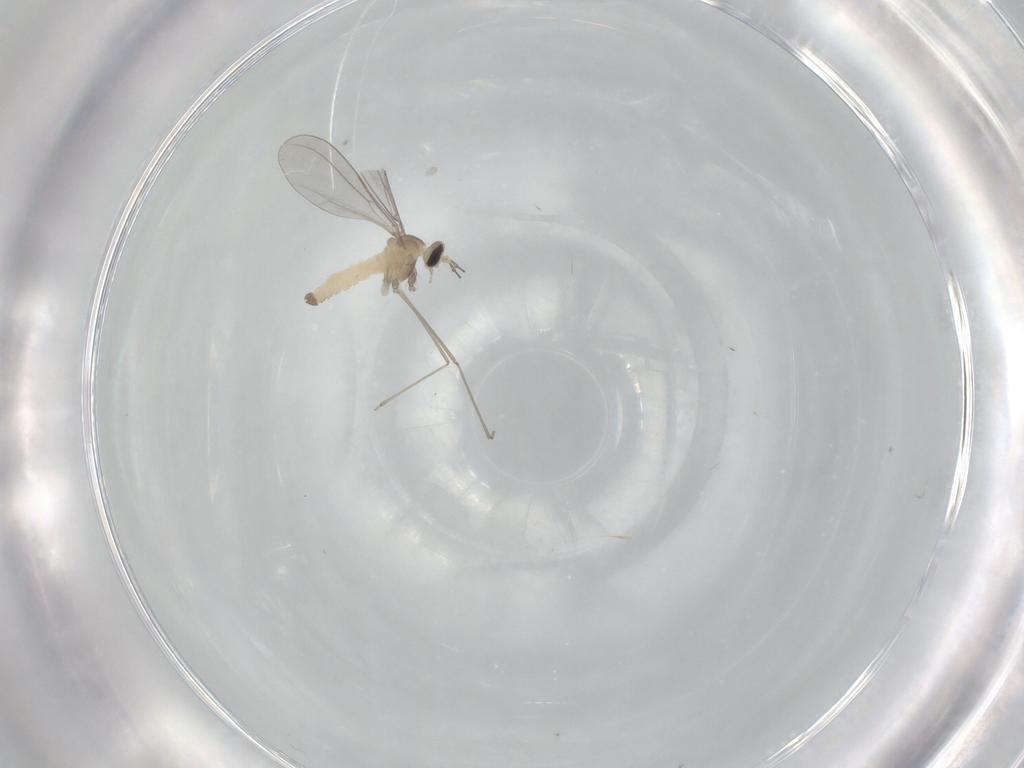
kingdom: Animalia
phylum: Arthropoda
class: Insecta
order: Diptera
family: Cecidomyiidae
